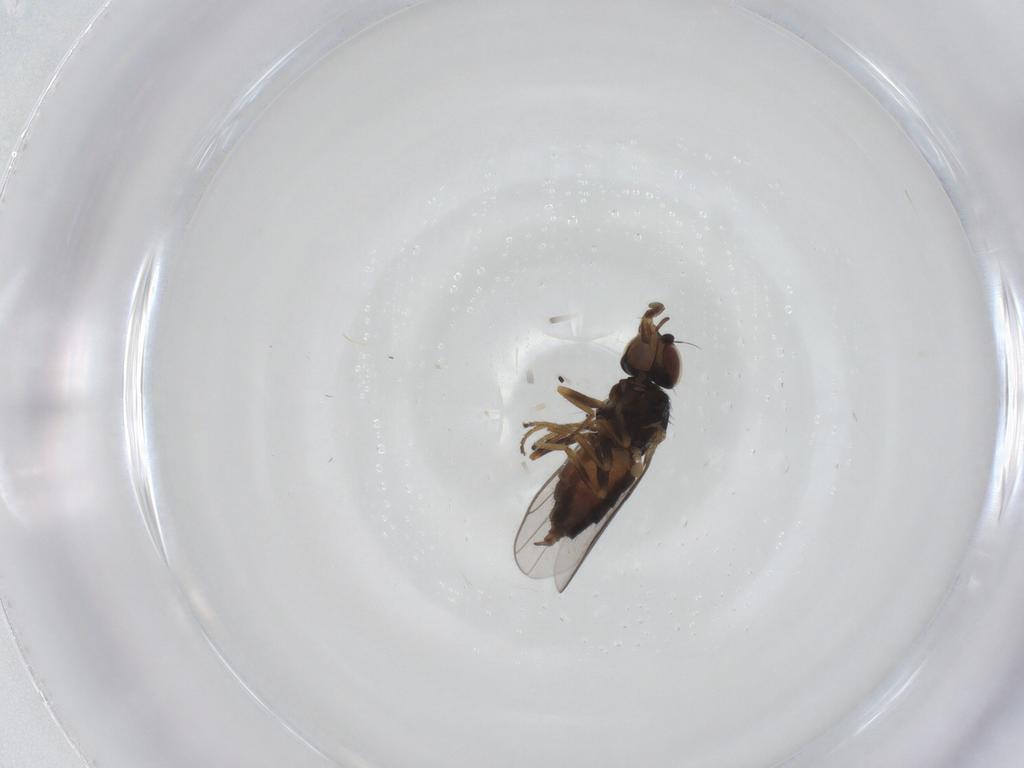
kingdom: Animalia
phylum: Arthropoda
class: Insecta
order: Diptera
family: Chloropidae
